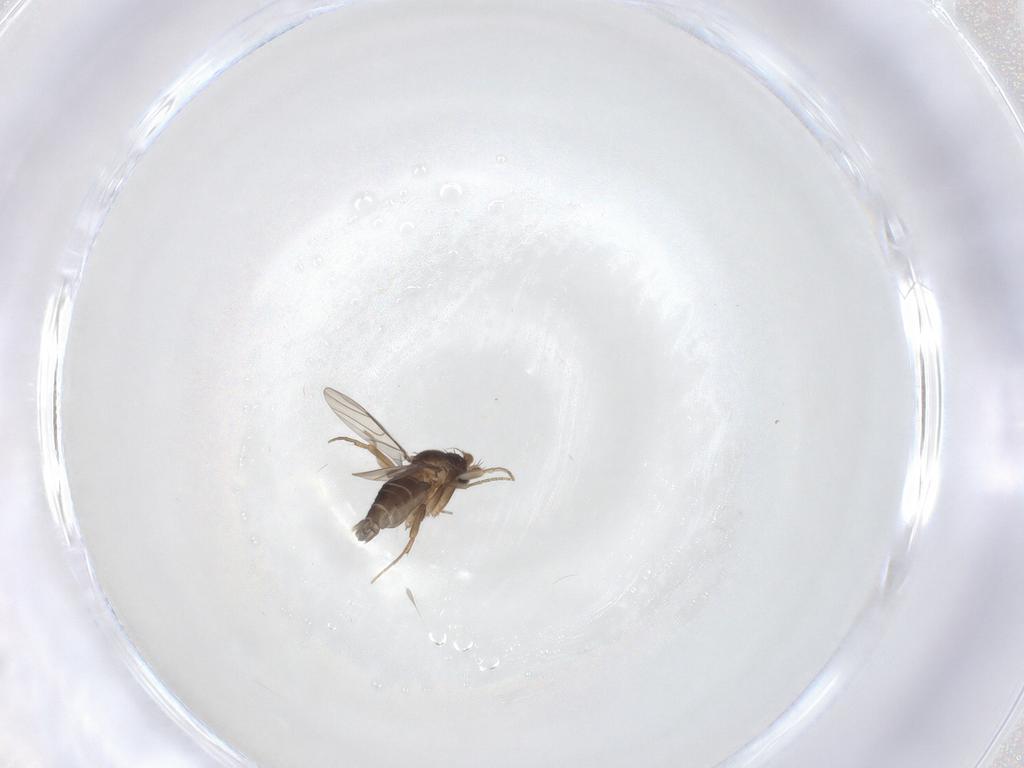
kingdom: Animalia
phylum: Arthropoda
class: Insecta
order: Diptera
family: Phoridae
